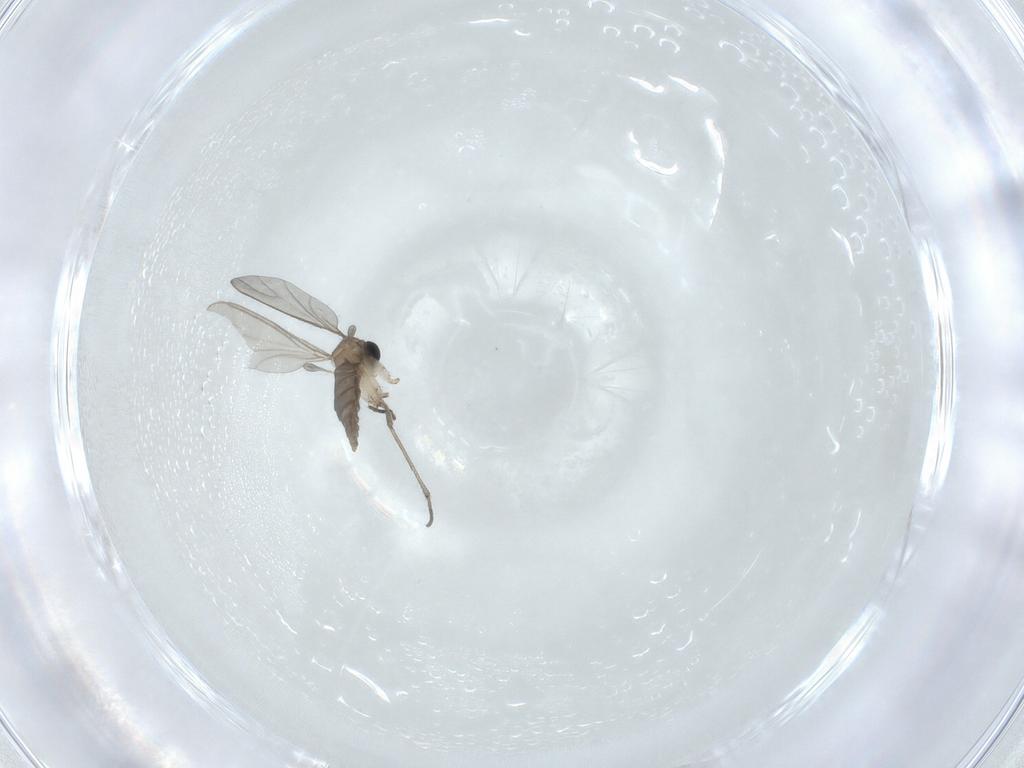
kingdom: Animalia
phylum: Arthropoda
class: Insecta
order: Diptera
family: Sciaridae
